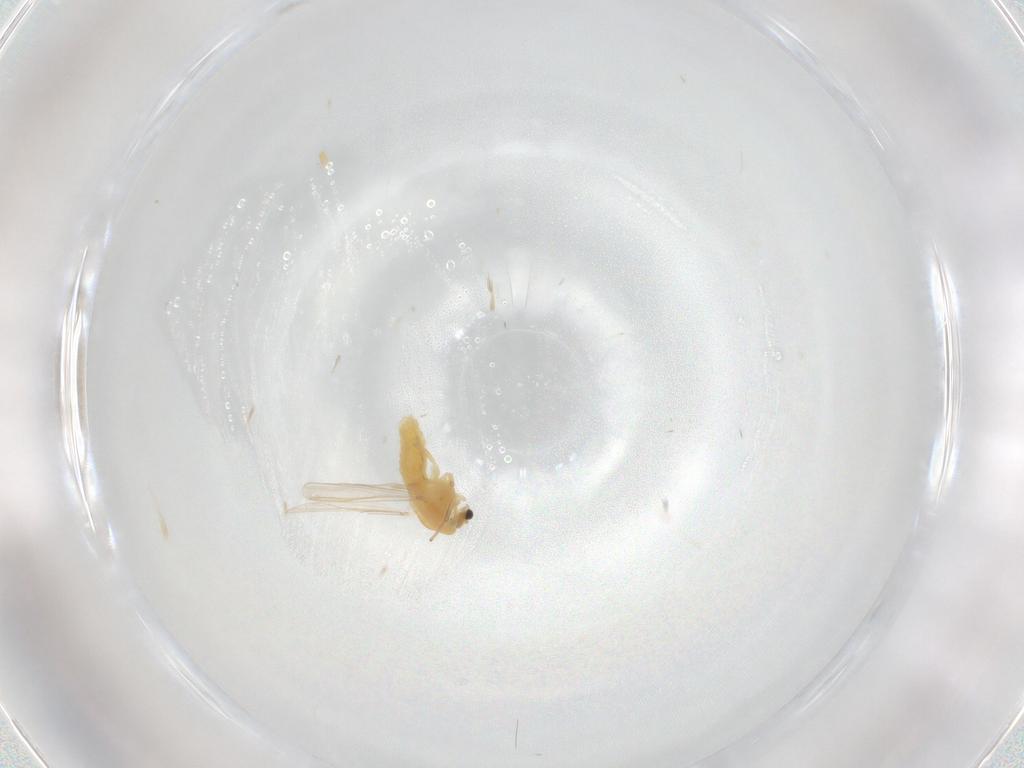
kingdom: Animalia
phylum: Arthropoda
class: Insecta
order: Diptera
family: Chironomidae
